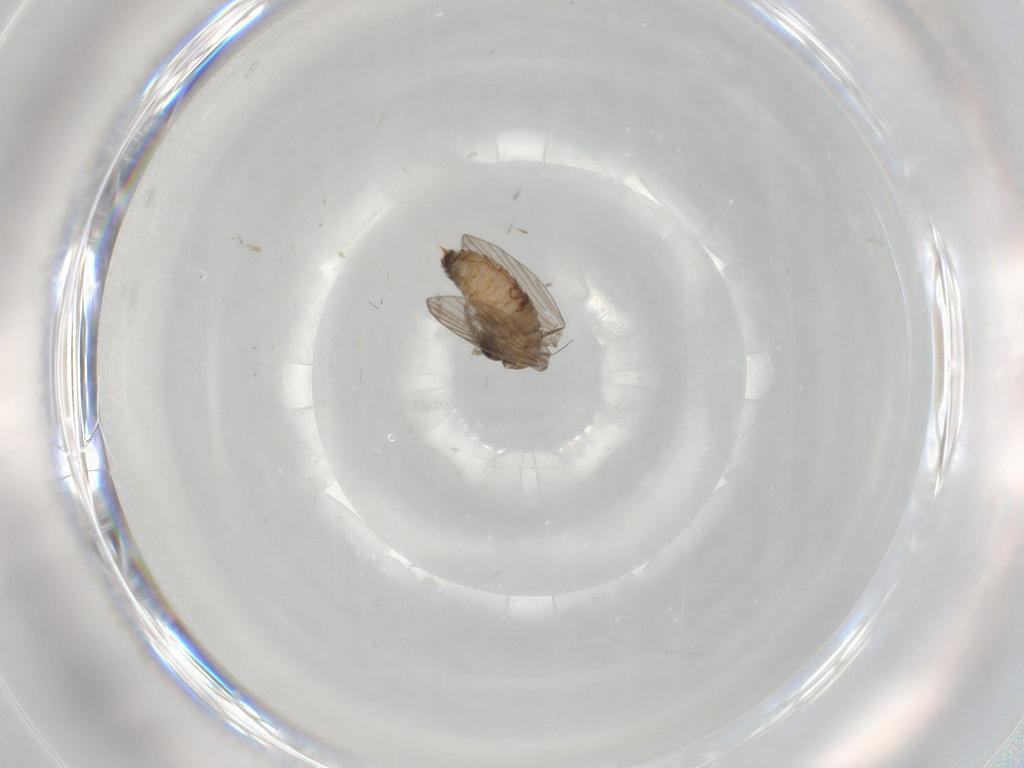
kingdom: Animalia
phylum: Arthropoda
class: Insecta
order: Diptera
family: Psychodidae
